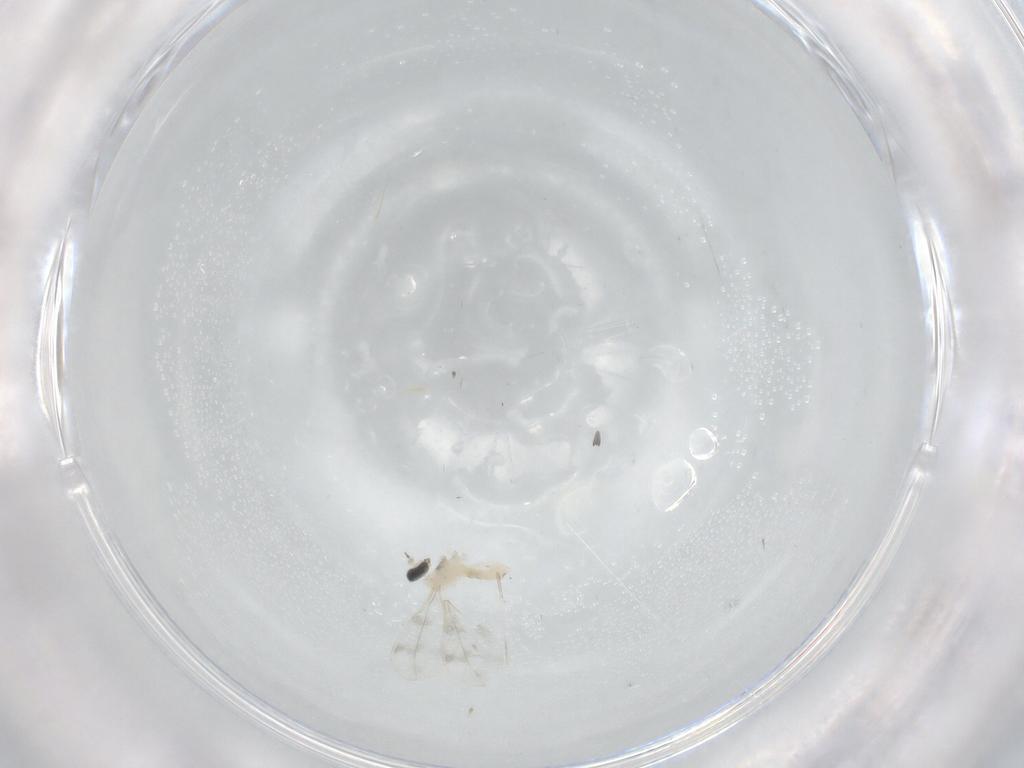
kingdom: Animalia
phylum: Arthropoda
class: Insecta
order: Diptera
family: Cecidomyiidae
